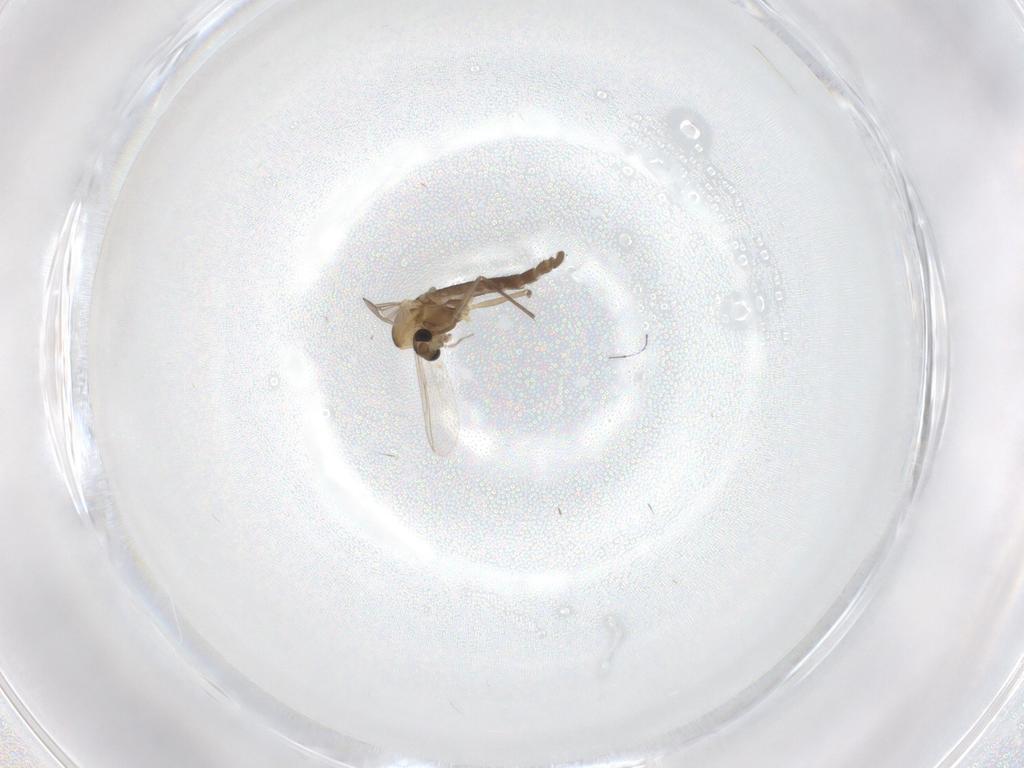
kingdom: Animalia
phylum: Arthropoda
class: Insecta
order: Diptera
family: Chironomidae
